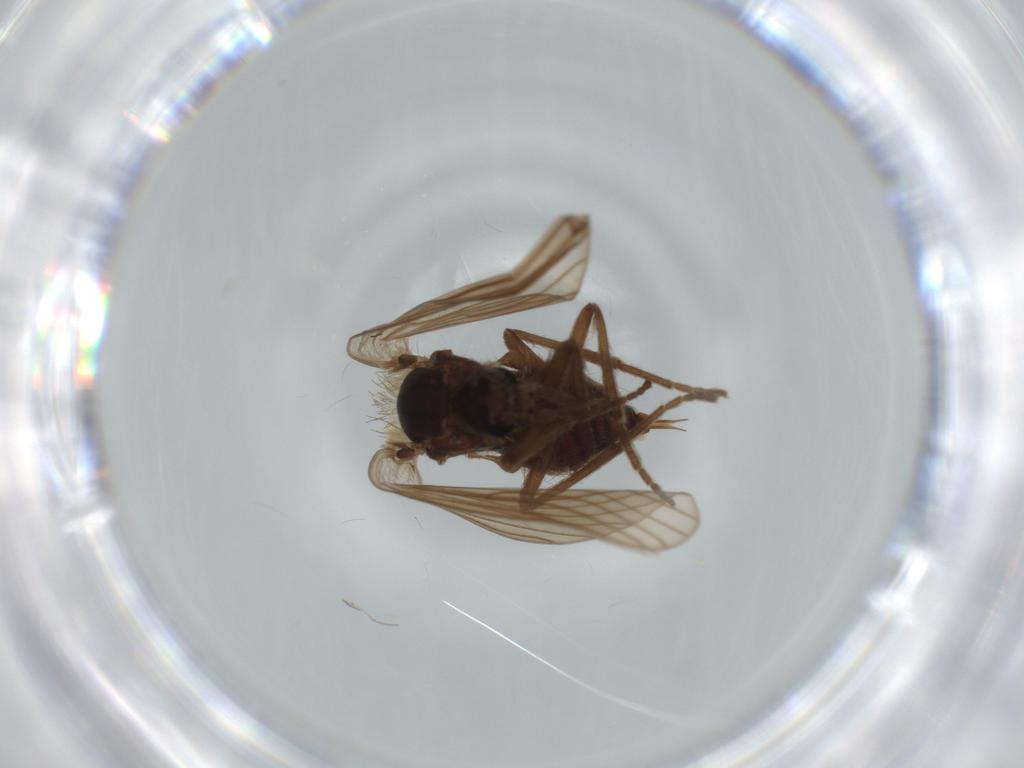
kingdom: Animalia
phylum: Arthropoda
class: Insecta
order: Diptera
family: Psychodidae
